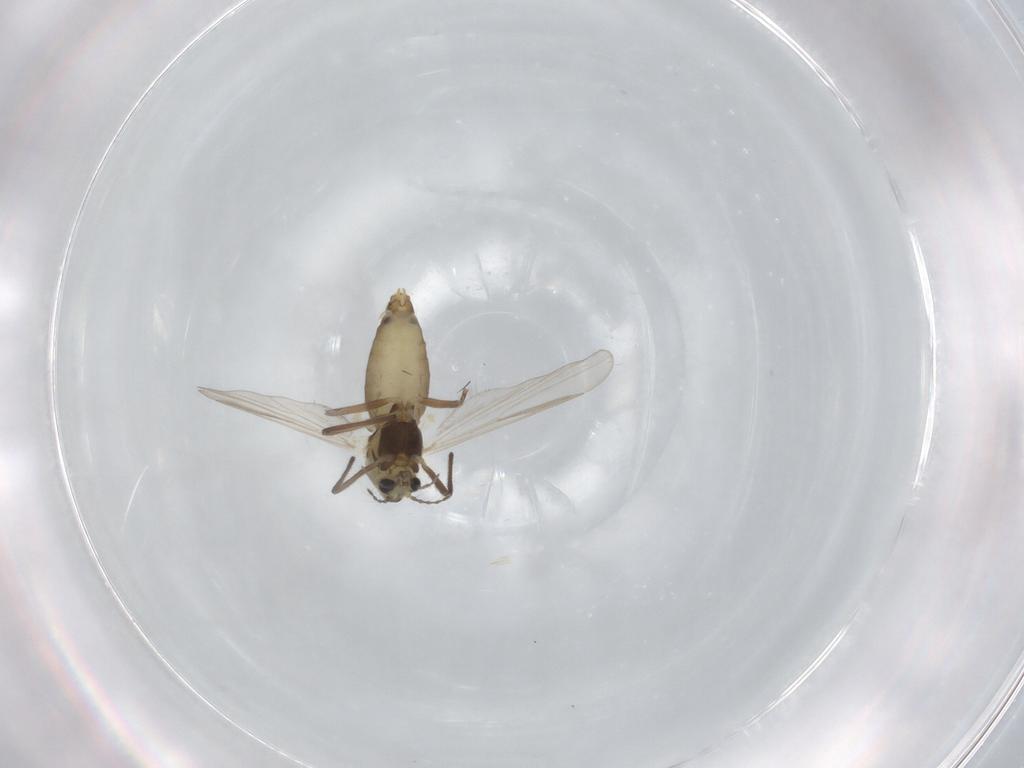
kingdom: Animalia
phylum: Arthropoda
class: Insecta
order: Diptera
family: Chironomidae
